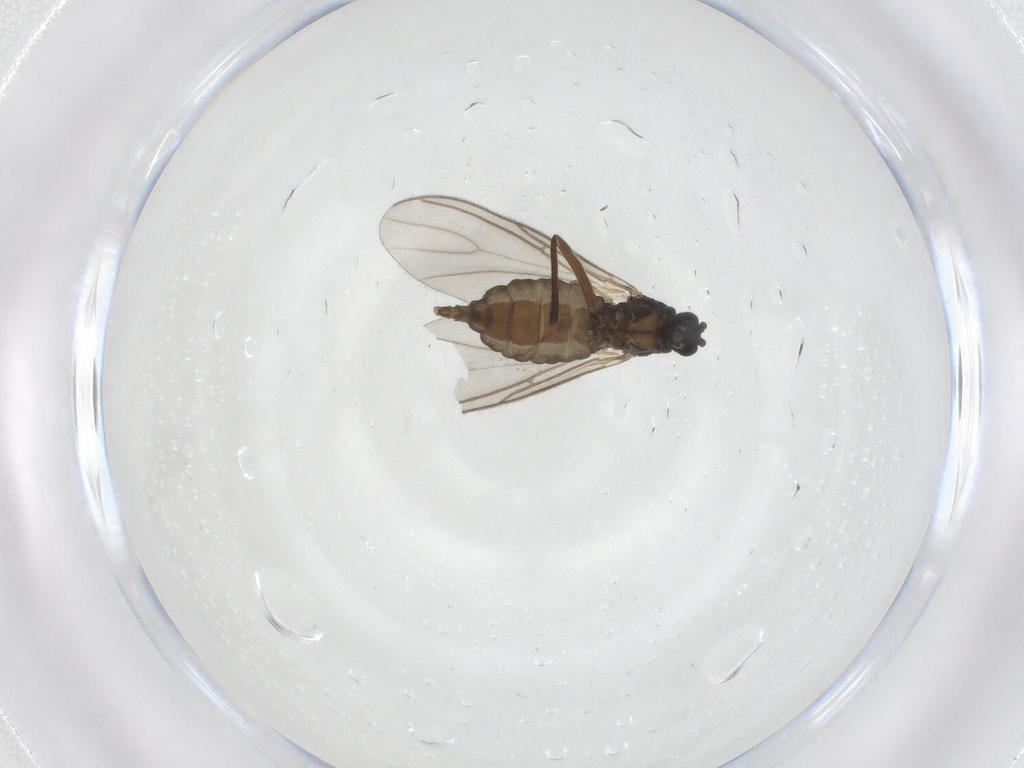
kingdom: Animalia
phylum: Arthropoda
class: Insecta
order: Diptera
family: Sciaridae
